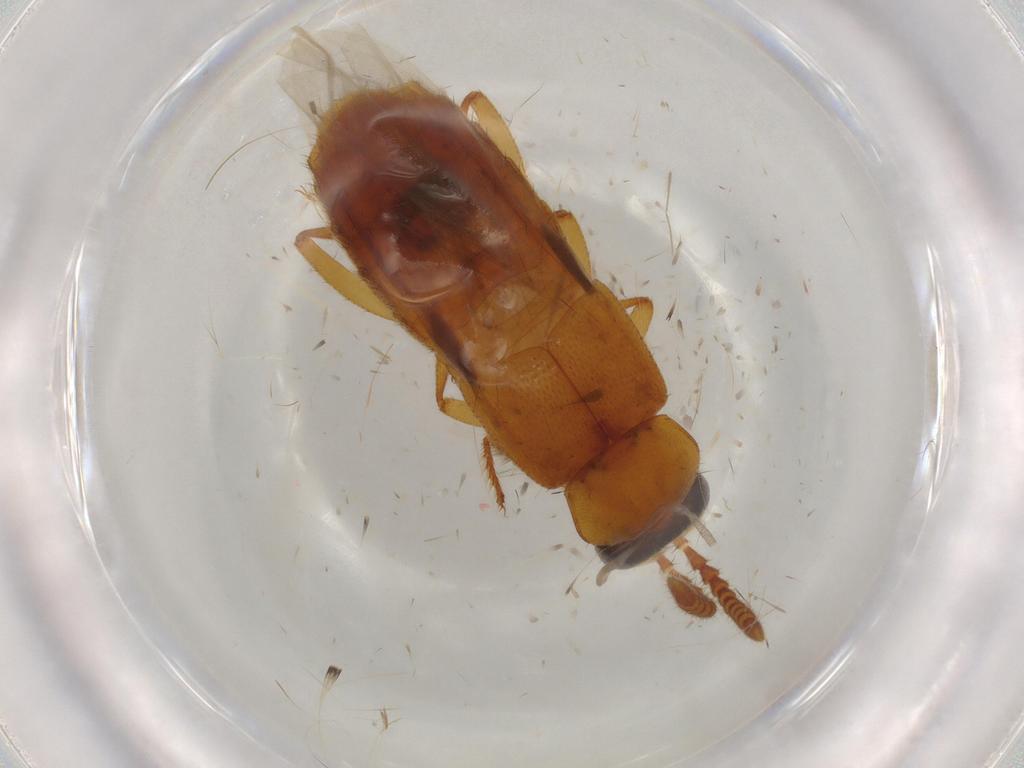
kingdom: Animalia
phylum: Arthropoda
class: Insecta
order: Coleoptera
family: Staphylinidae
